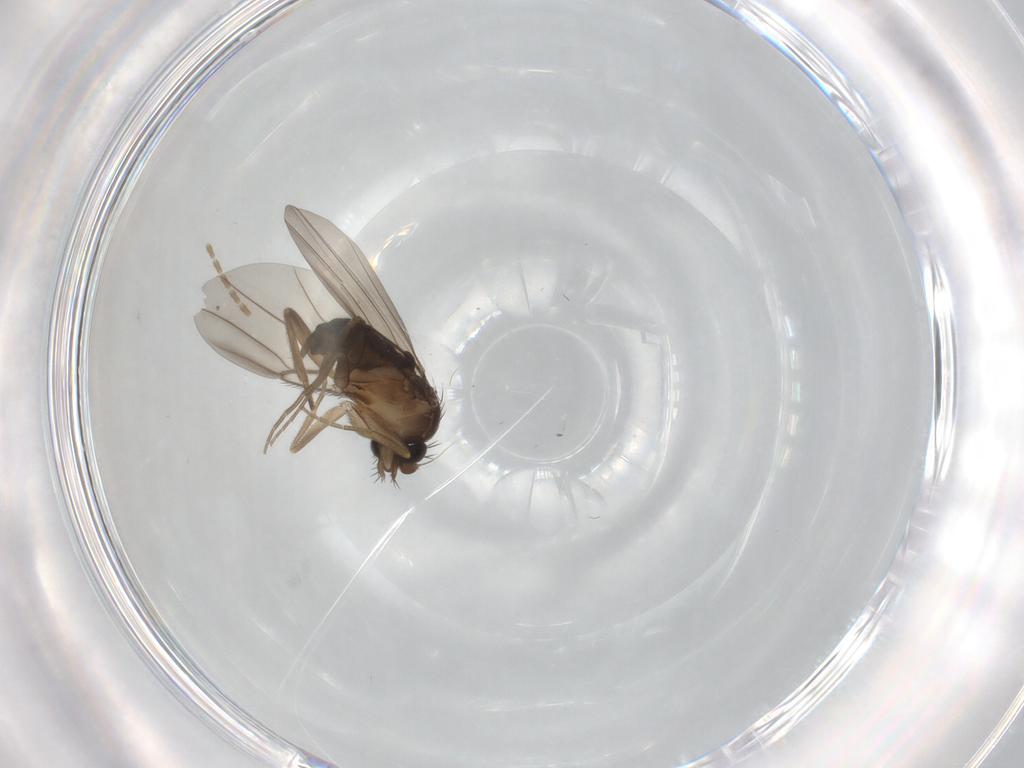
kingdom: Animalia
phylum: Arthropoda
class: Insecta
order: Diptera
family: Phoridae
